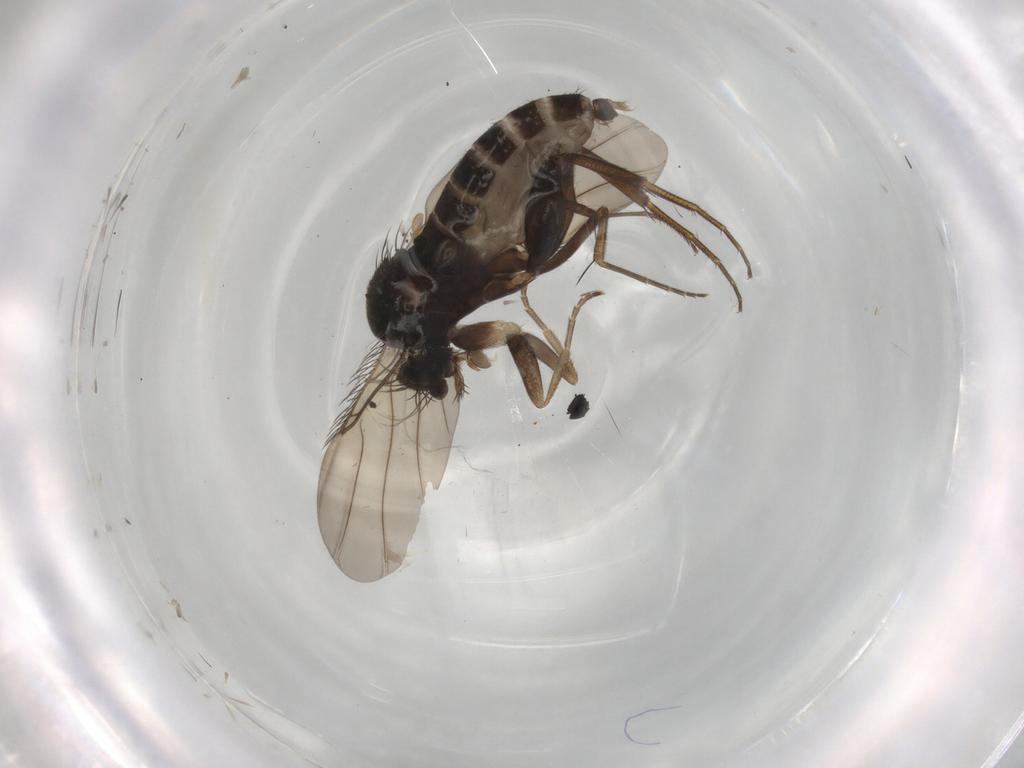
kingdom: Animalia
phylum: Arthropoda
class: Insecta
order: Diptera
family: Phoridae
